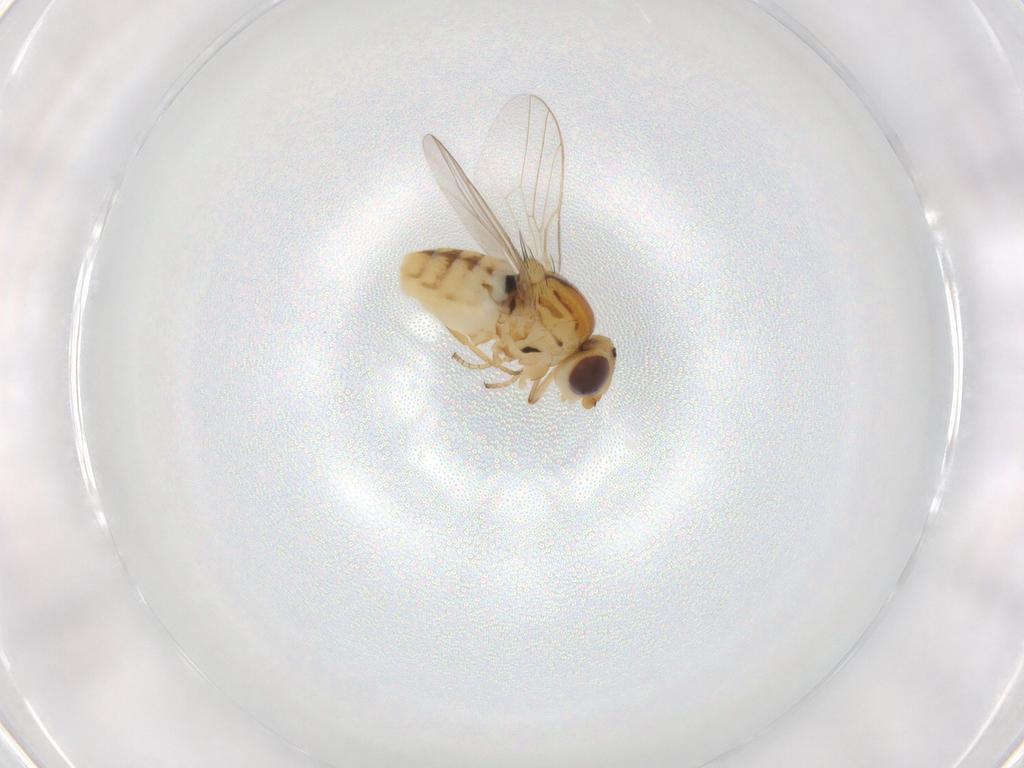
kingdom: Animalia
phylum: Arthropoda
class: Insecta
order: Diptera
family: Chloropidae
